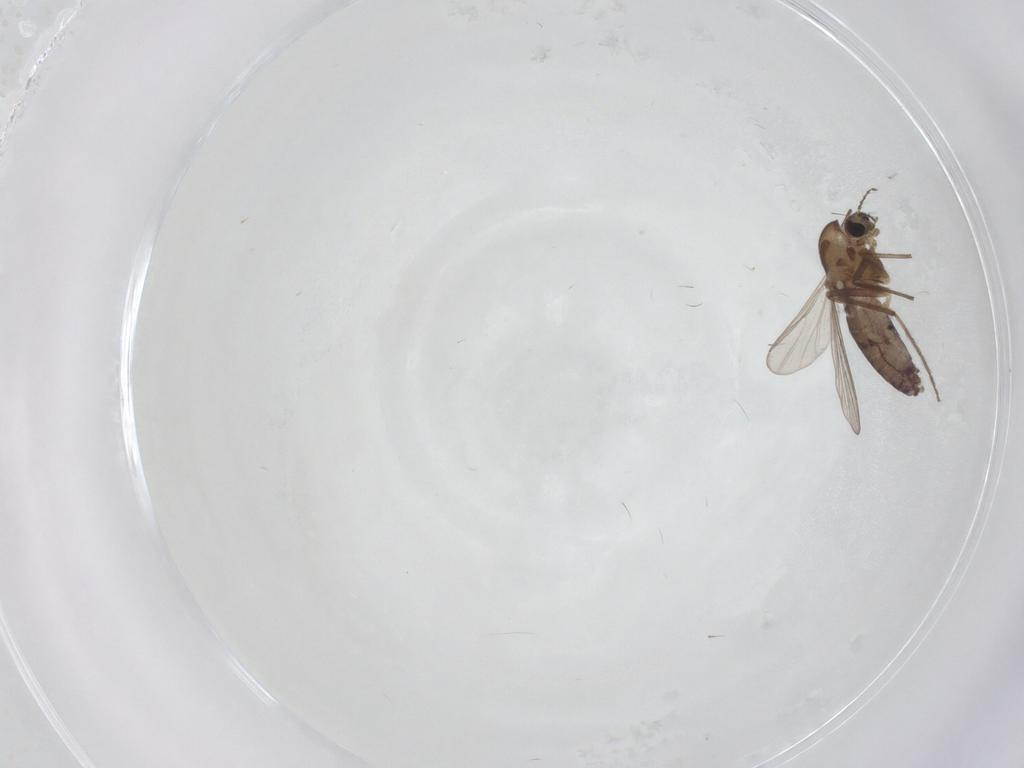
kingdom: Animalia
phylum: Arthropoda
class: Insecta
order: Diptera
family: Chironomidae
